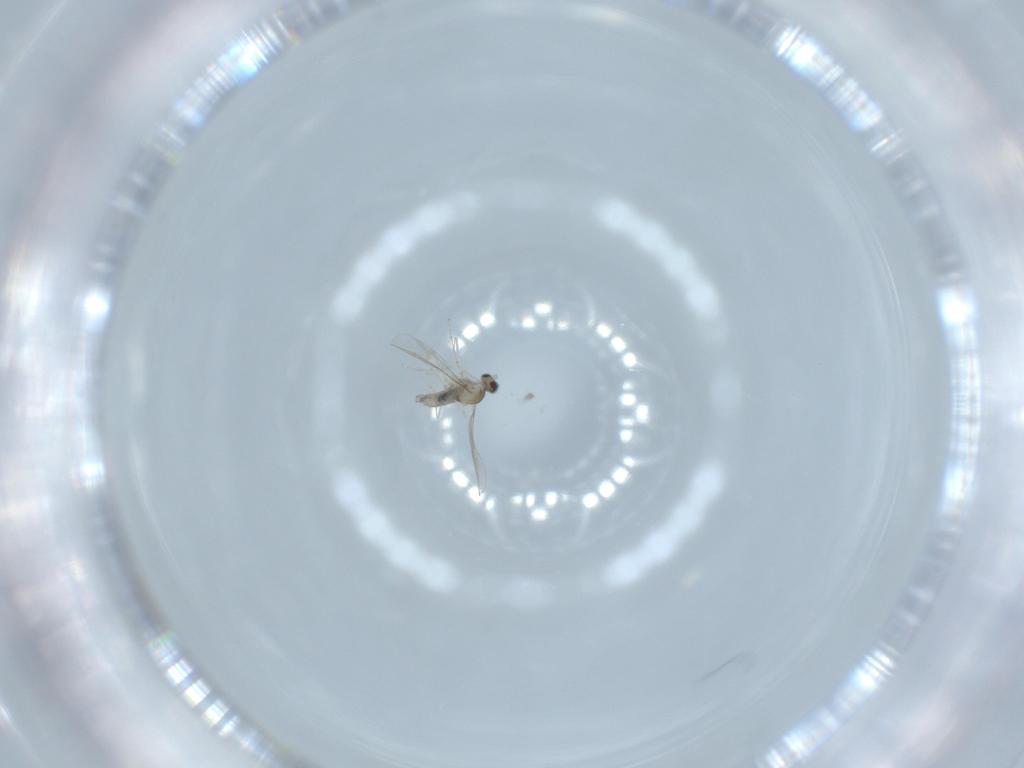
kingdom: Animalia
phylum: Arthropoda
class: Insecta
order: Diptera
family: Cecidomyiidae
